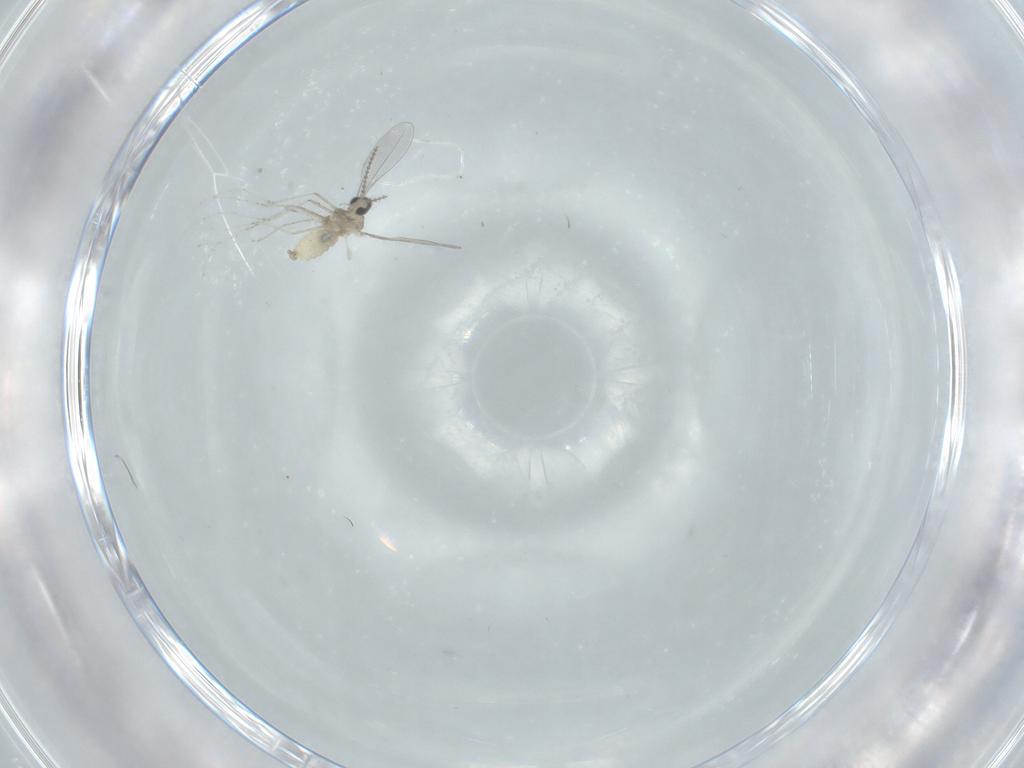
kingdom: Animalia
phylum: Arthropoda
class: Insecta
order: Diptera
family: Cecidomyiidae
